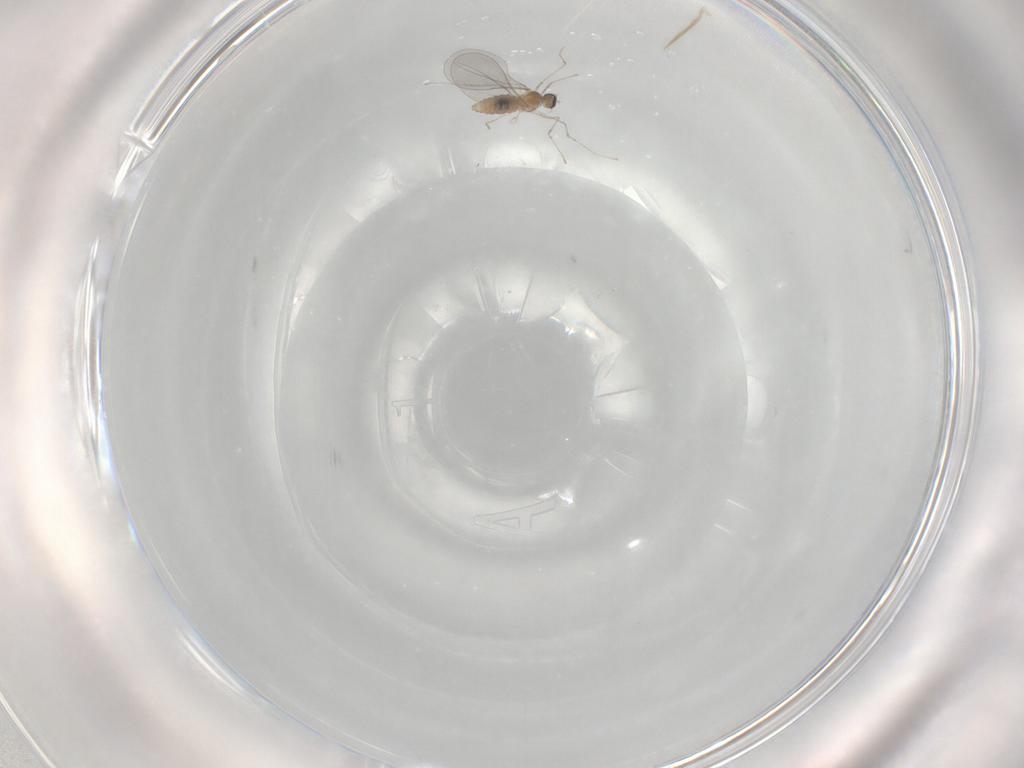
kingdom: Animalia
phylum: Arthropoda
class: Insecta
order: Diptera
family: Cecidomyiidae
